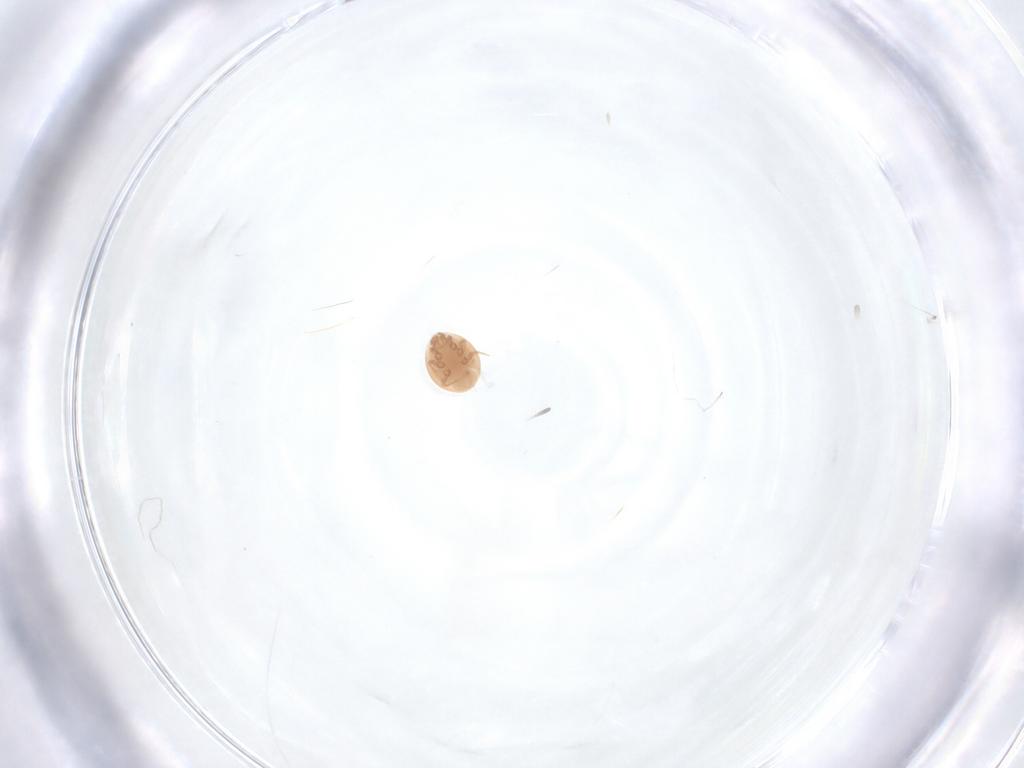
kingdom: Animalia
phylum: Arthropoda
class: Arachnida
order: Mesostigmata
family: Trematuridae
